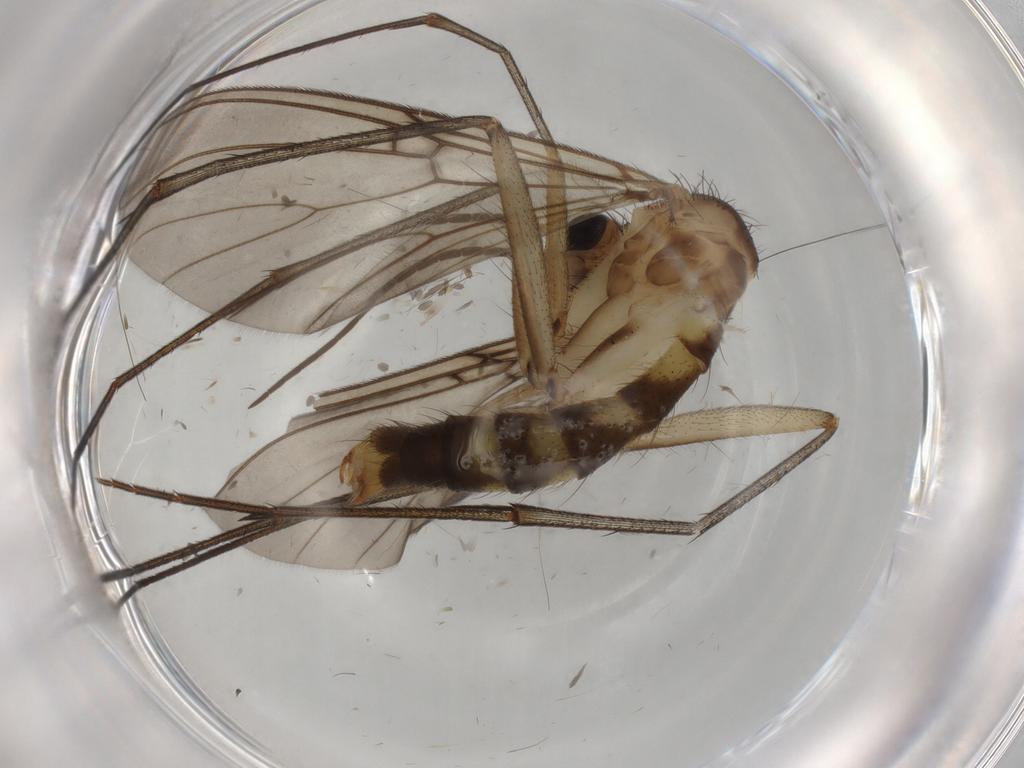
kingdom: Animalia
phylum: Arthropoda
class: Insecta
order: Diptera
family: Mycetophilidae
